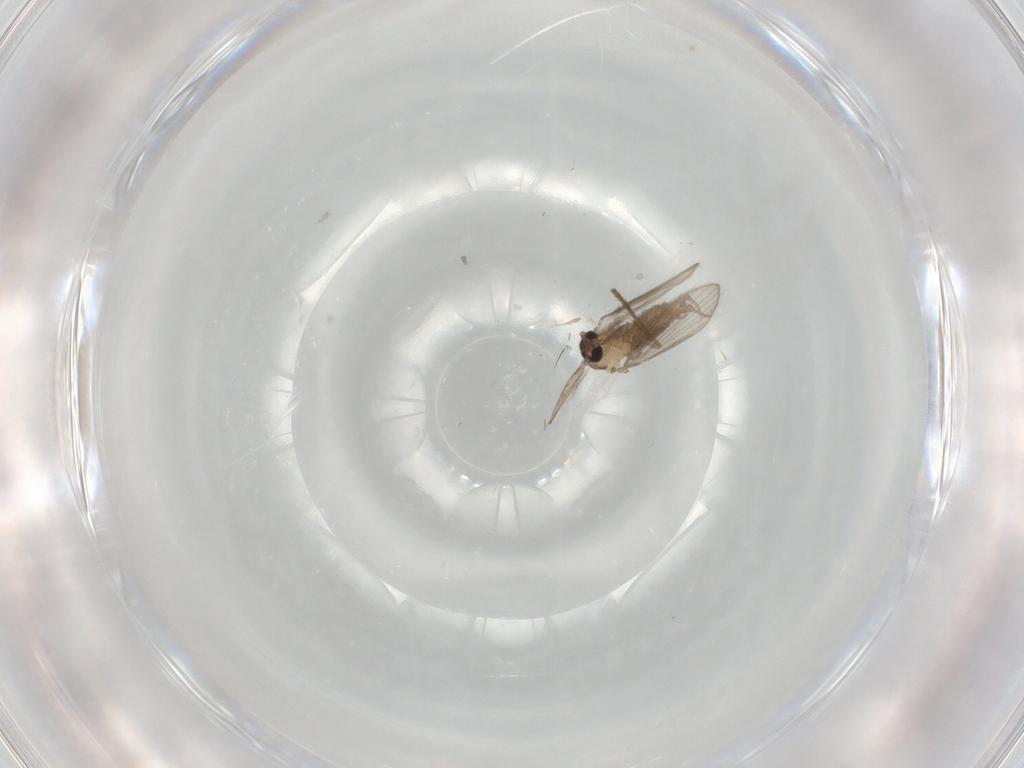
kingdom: Animalia
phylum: Arthropoda
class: Insecta
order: Diptera
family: Psychodidae
